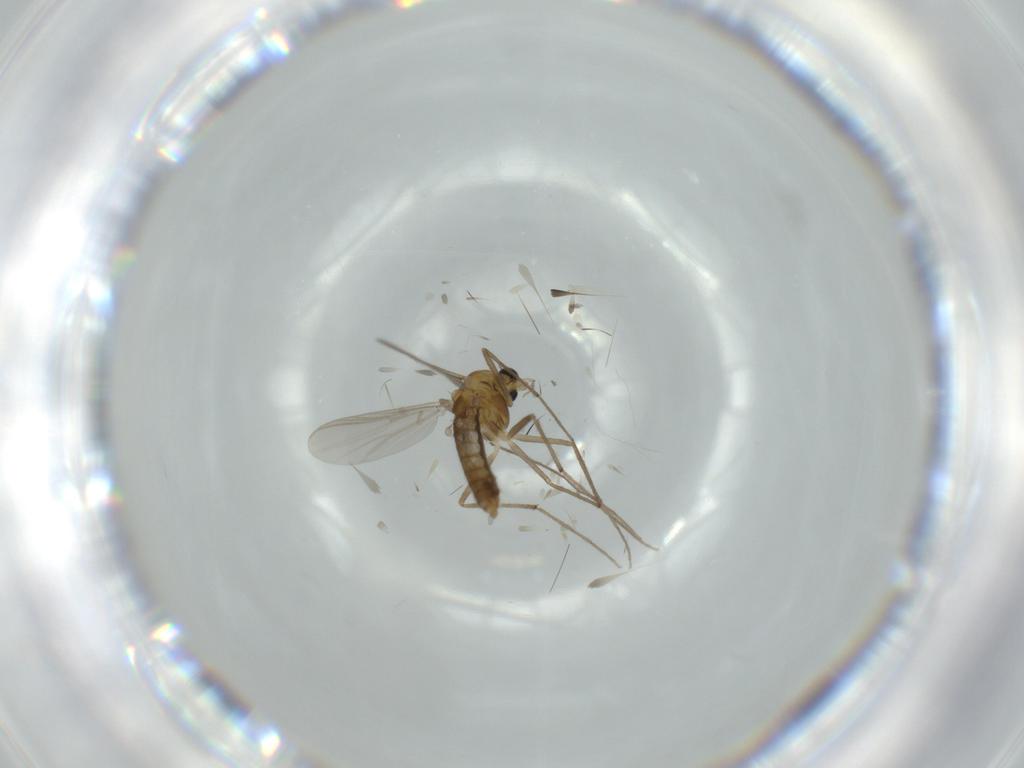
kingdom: Animalia
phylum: Arthropoda
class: Insecta
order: Diptera
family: Chironomidae
